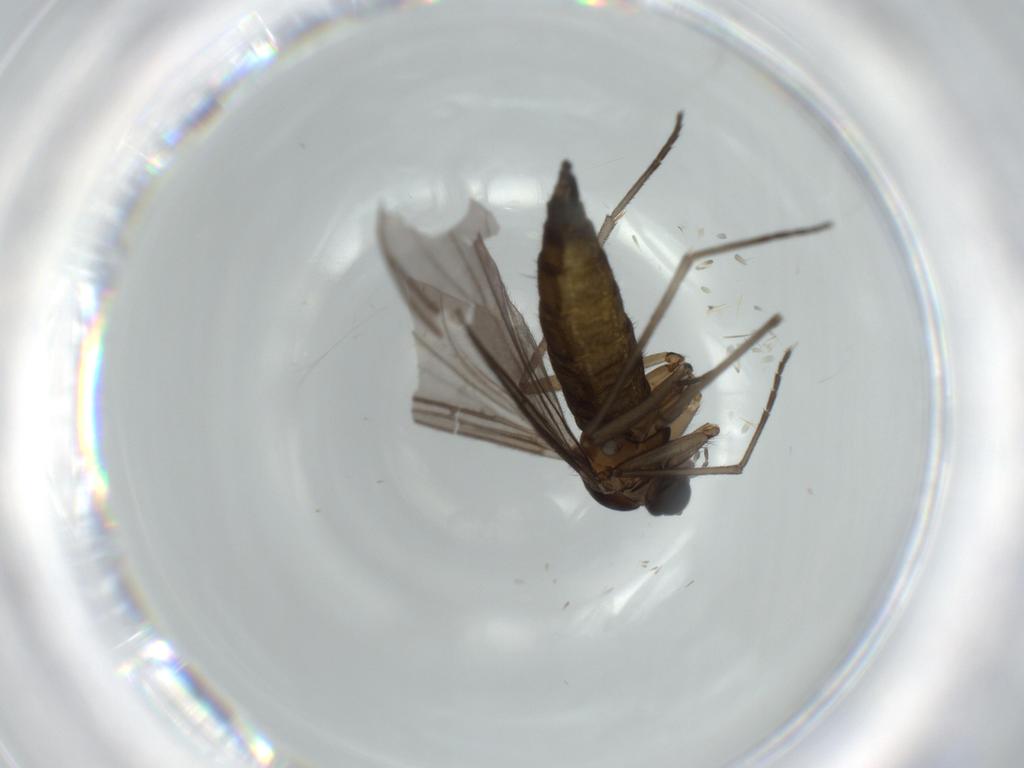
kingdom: Animalia
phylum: Arthropoda
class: Insecta
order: Diptera
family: Sciaridae
